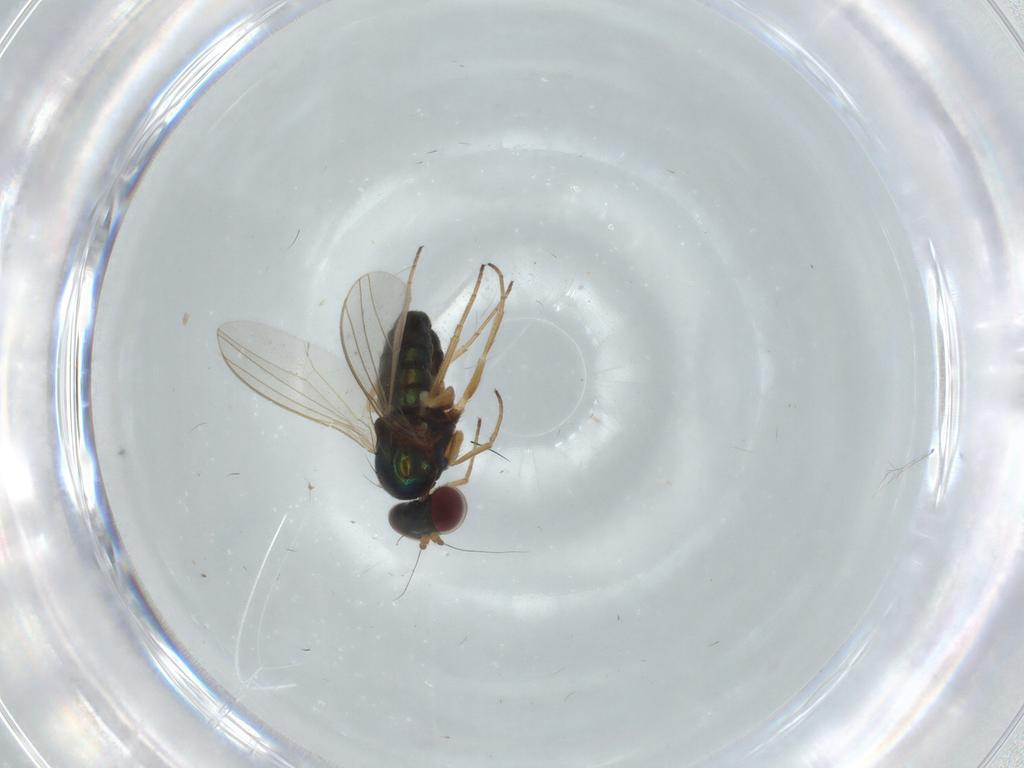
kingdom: Animalia
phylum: Arthropoda
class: Insecta
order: Diptera
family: Dolichopodidae
